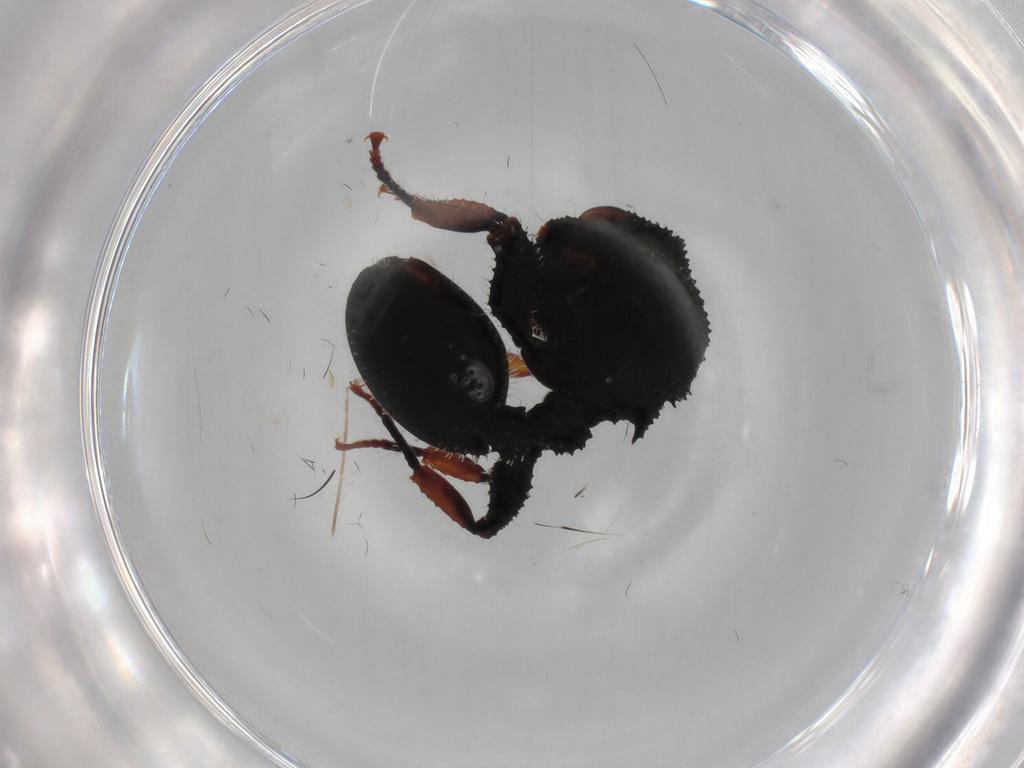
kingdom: Animalia
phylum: Arthropoda
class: Insecta
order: Hymenoptera
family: Formicidae
